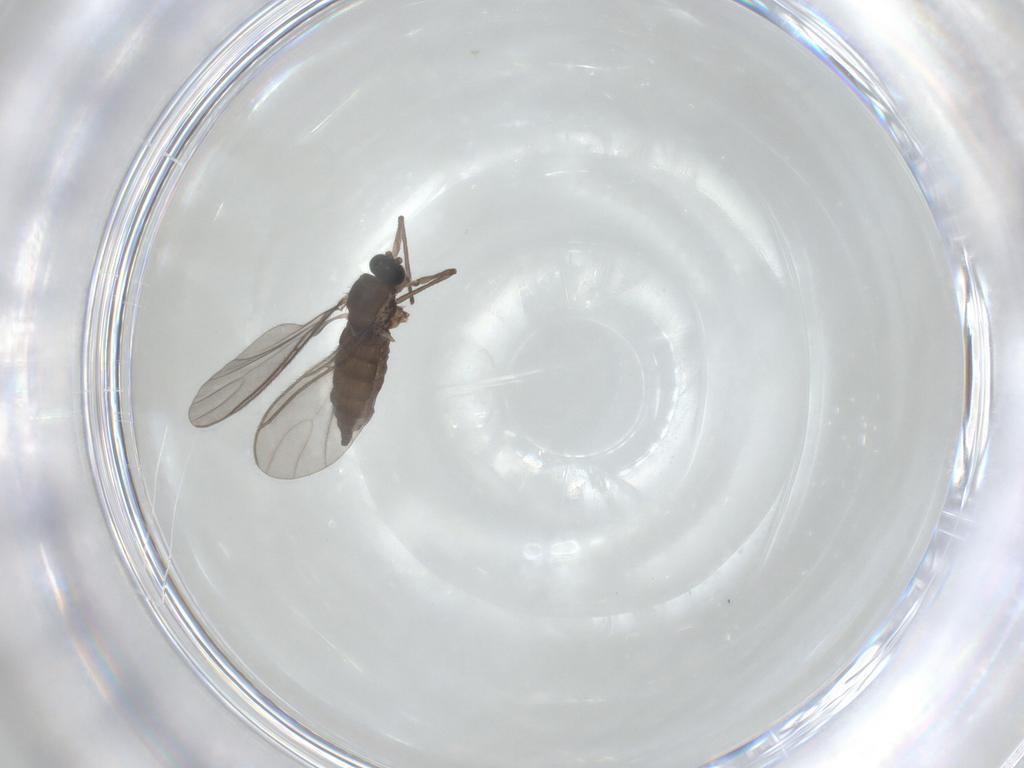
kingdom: Animalia
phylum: Arthropoda
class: Insecta
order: Diptera
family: Sciaridae
